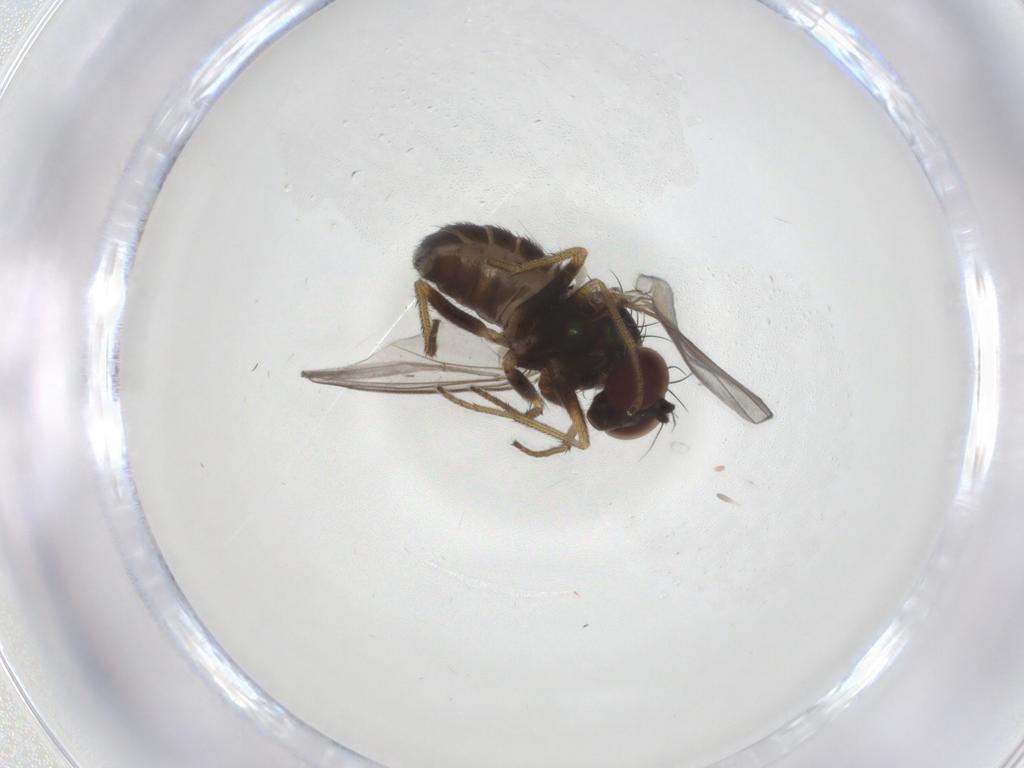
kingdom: Animalia
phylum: Arthropoda
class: Insecta
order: Diptera
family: Dolichopodidae
